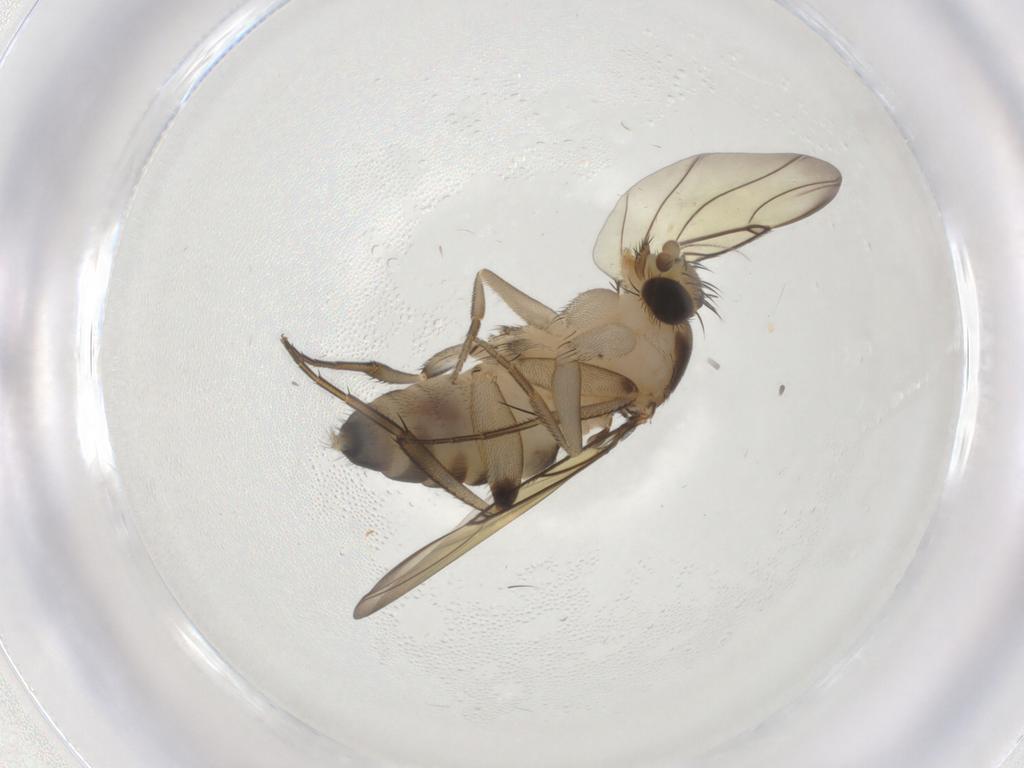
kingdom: Animalia
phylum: Arthropoda
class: Insecta
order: Diptera
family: Phoridae
